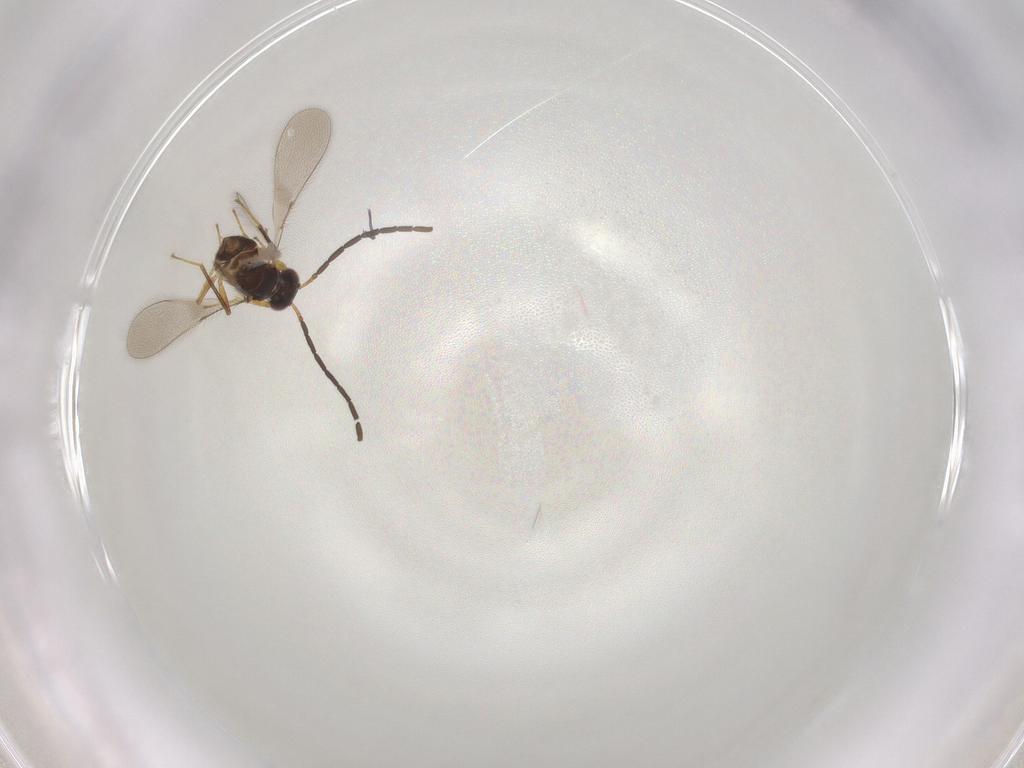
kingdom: Animalia
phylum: Arthropoda
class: Insecta
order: Hymenoptera
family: Mymaridae
